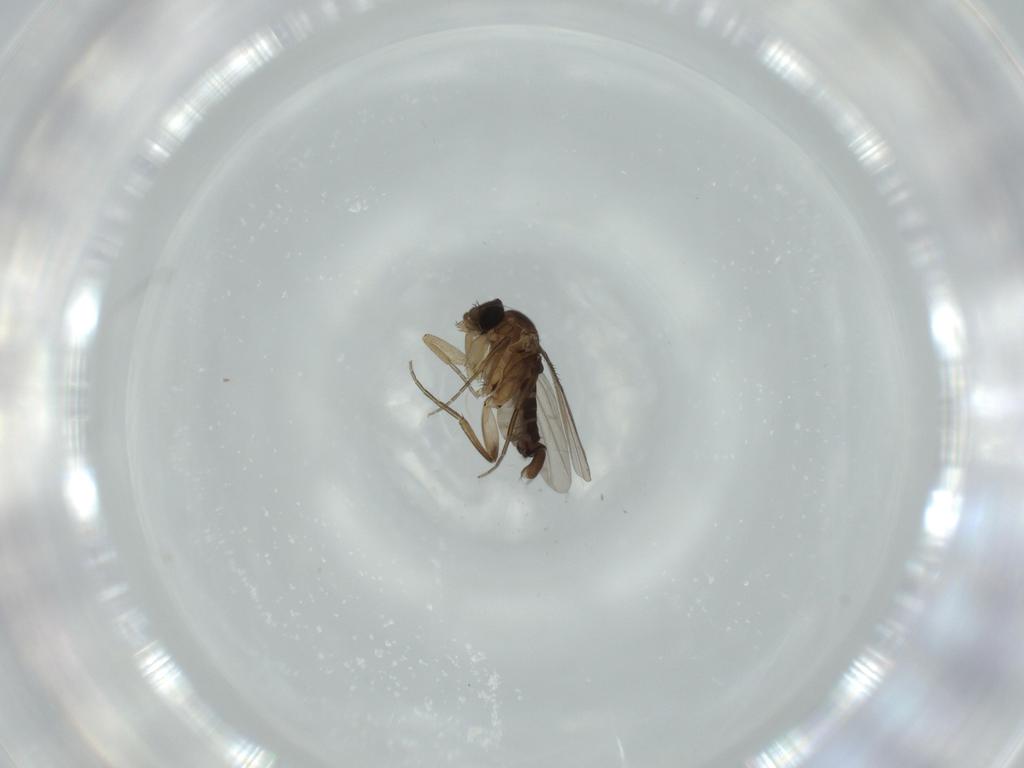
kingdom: Animalia
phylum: Arthropoda
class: Insecta
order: Diptera
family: Phoridae
